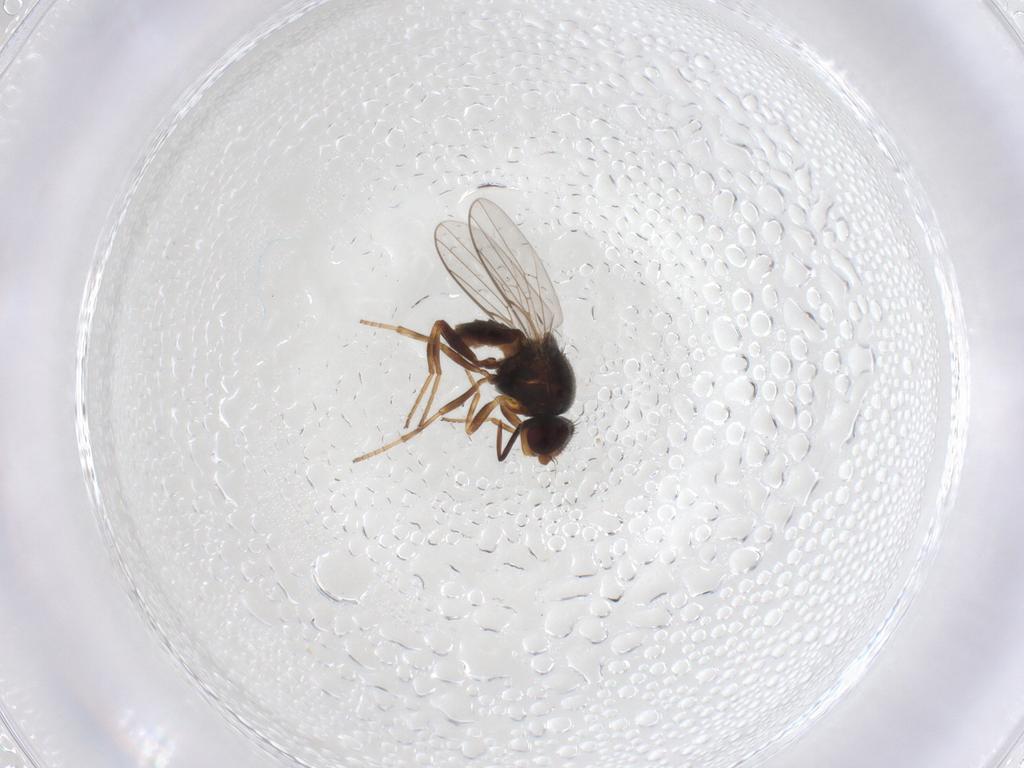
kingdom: Animalia
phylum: Arthropoda
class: Insecta
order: Diptera
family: Chloropidae
